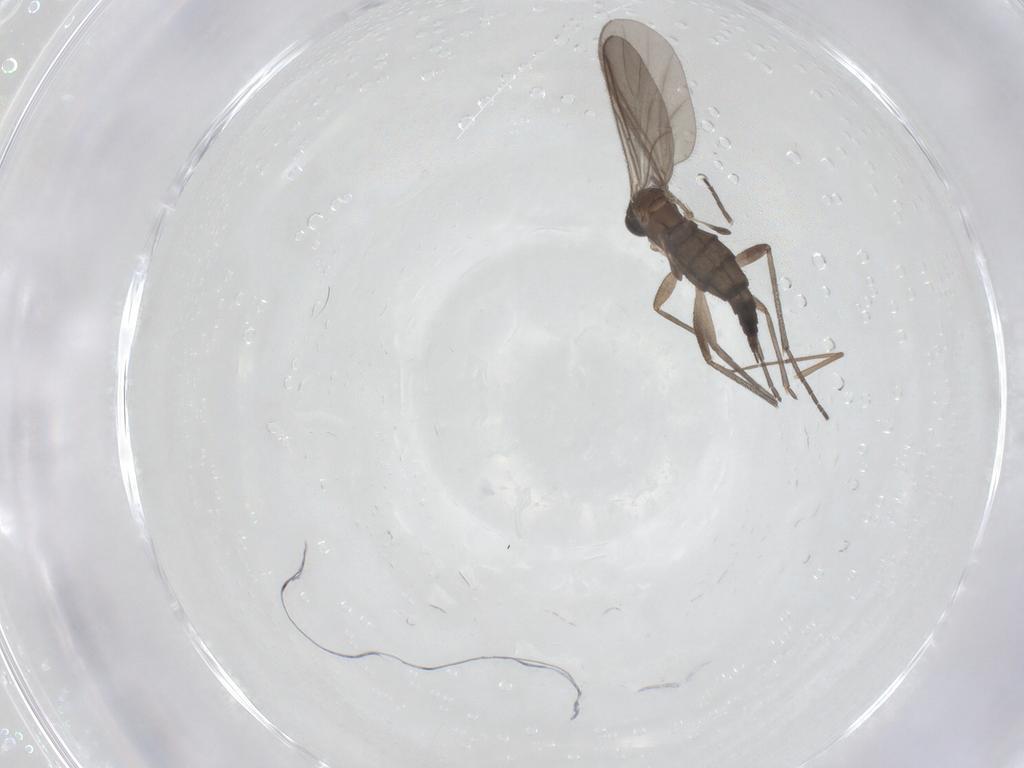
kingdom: Animalia
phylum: Arthropoda
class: Insecta
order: Diptera
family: Sciaridae
